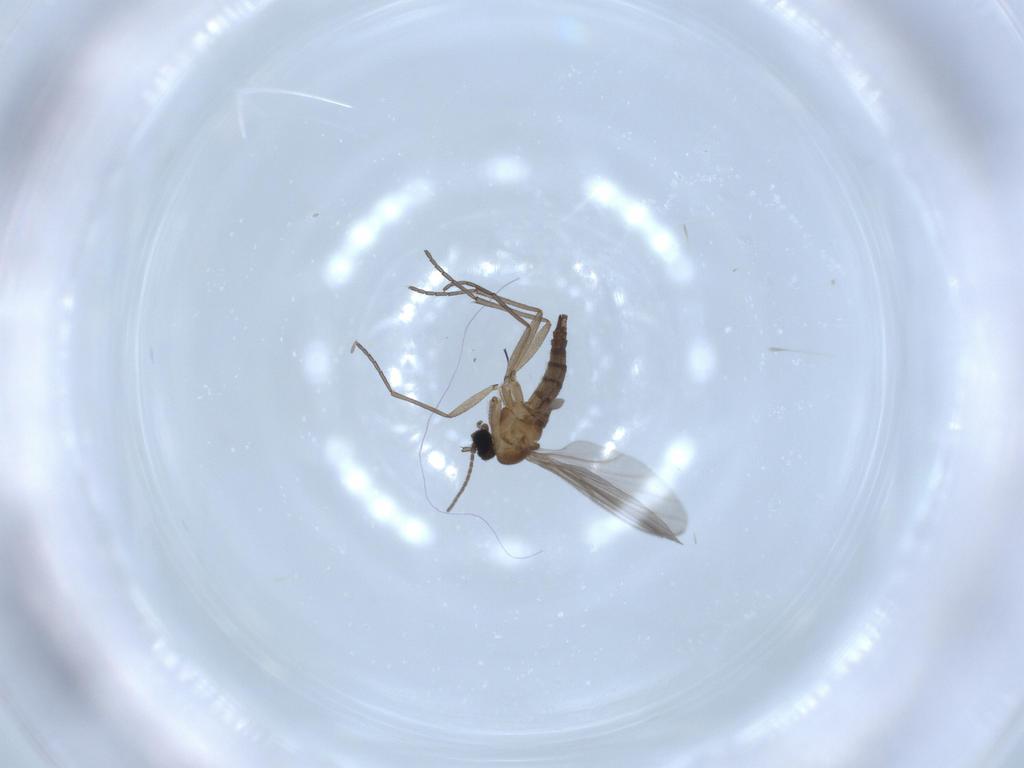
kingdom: Animalia
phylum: Arthropoda
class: Insecta
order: Diptera
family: Sciaridae
